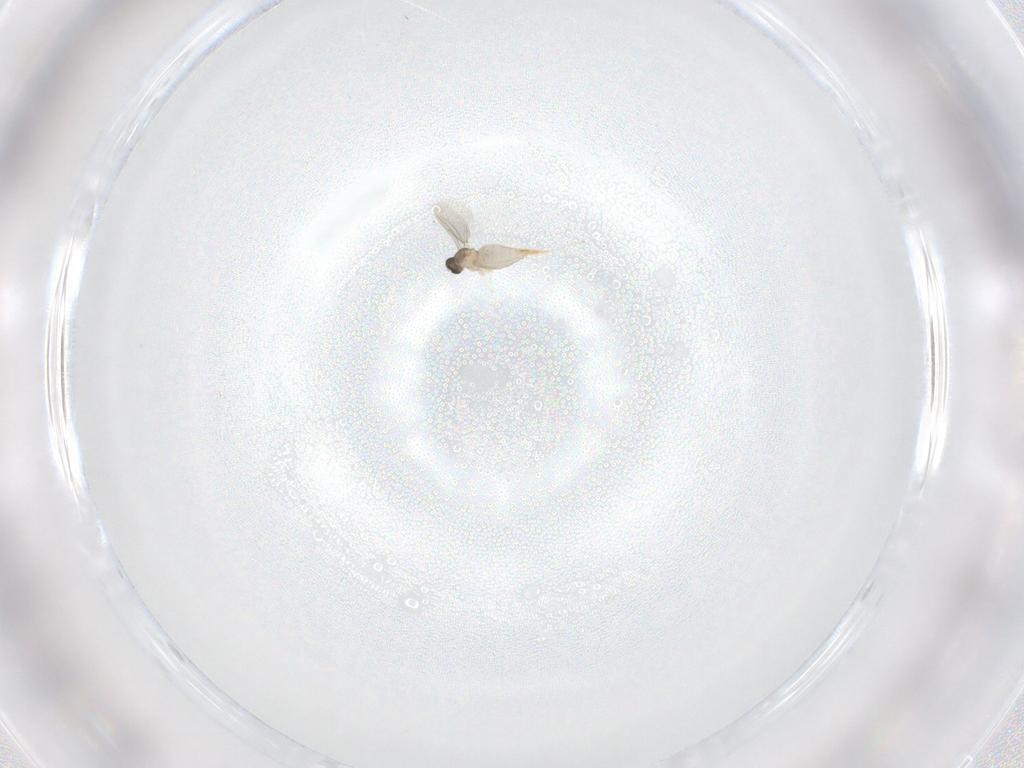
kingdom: Animalia
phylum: Arthropoda
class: Insecta
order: Diptera
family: Cecidomyiidae
